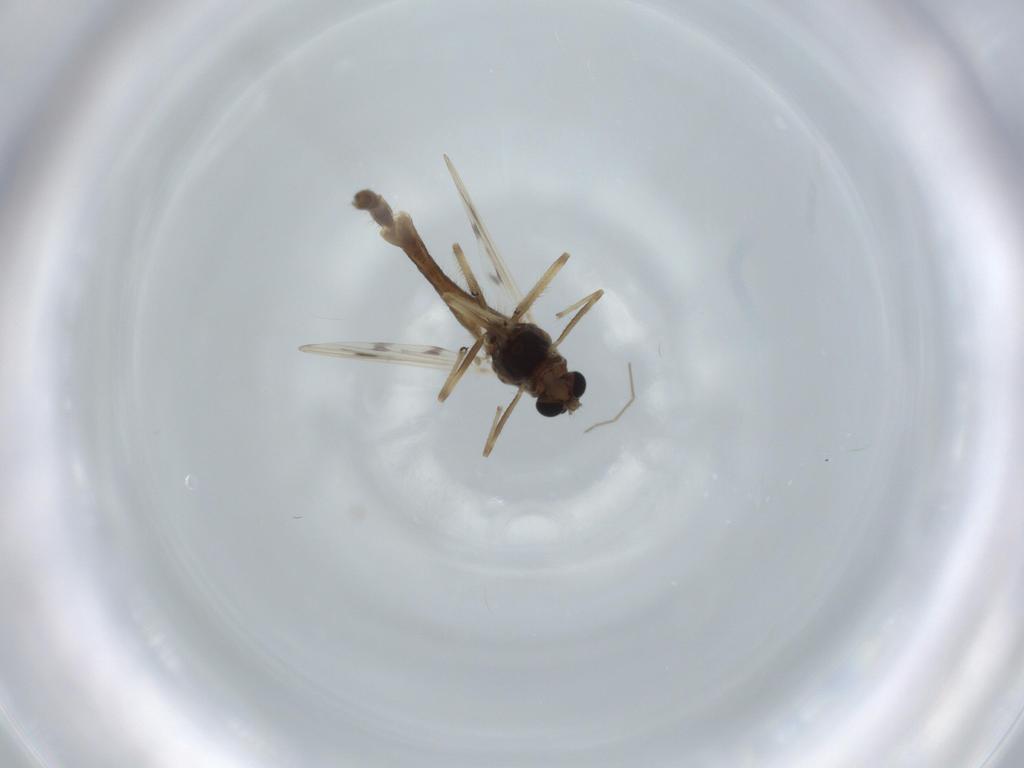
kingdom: Animalia
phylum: Arthropoda
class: Insecta
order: Diptera
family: Chironomidae
